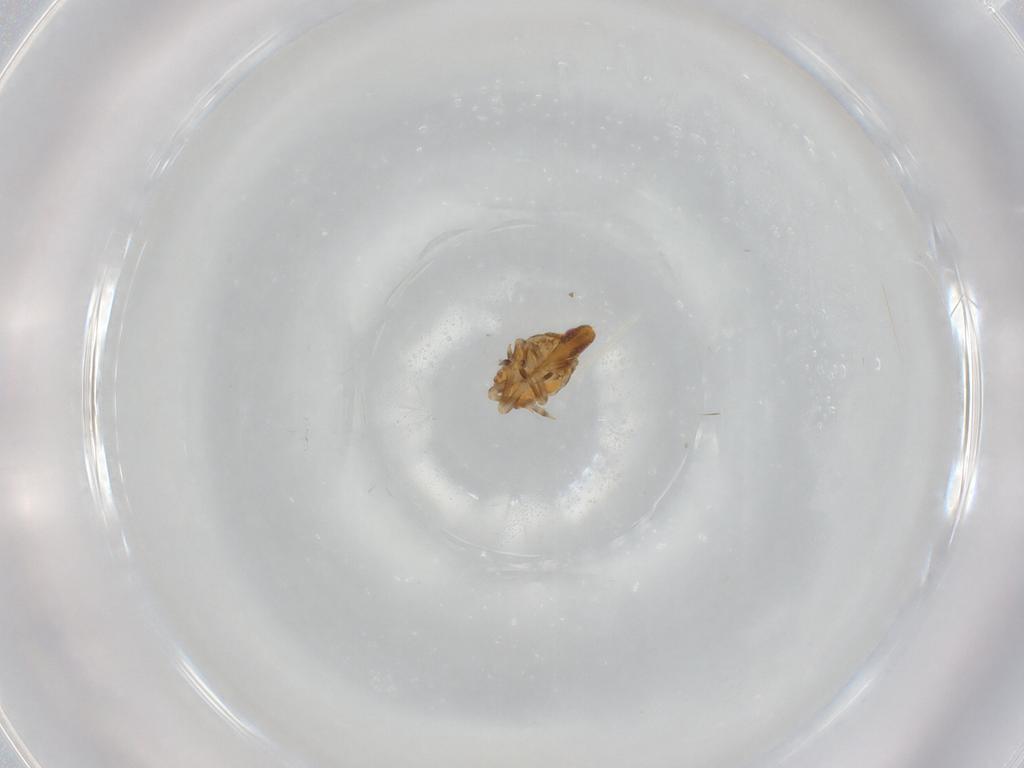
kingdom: Animalia
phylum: Arthropoda
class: Insecta
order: Hemiptera
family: Flatidae
